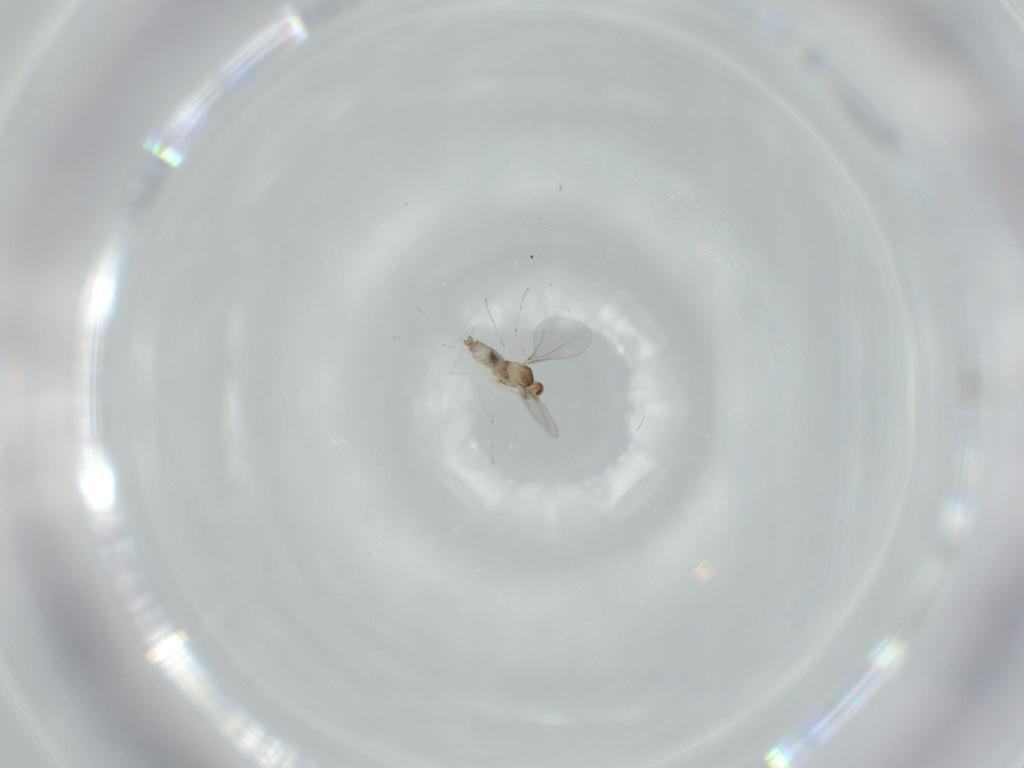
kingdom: Animalia
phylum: Arthropoda
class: Insecta
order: Diptera
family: Cecidomyiidae
